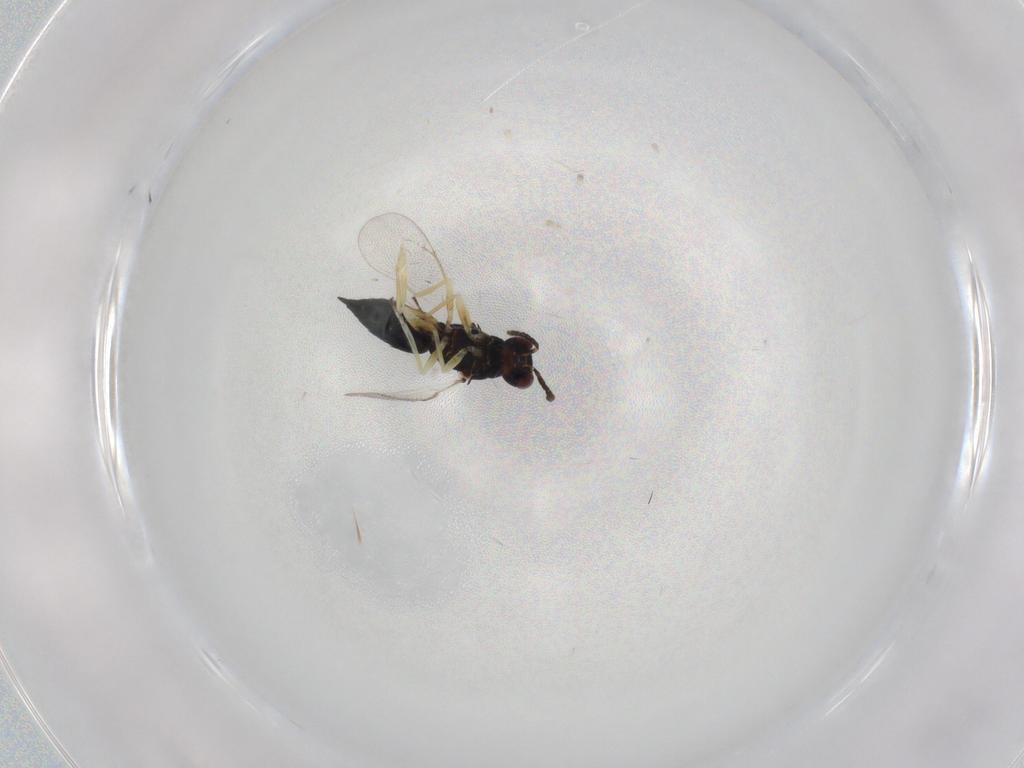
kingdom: Animalia
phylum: Arthropoda
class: Insecta
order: Hymenoptera
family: Eulophidae
